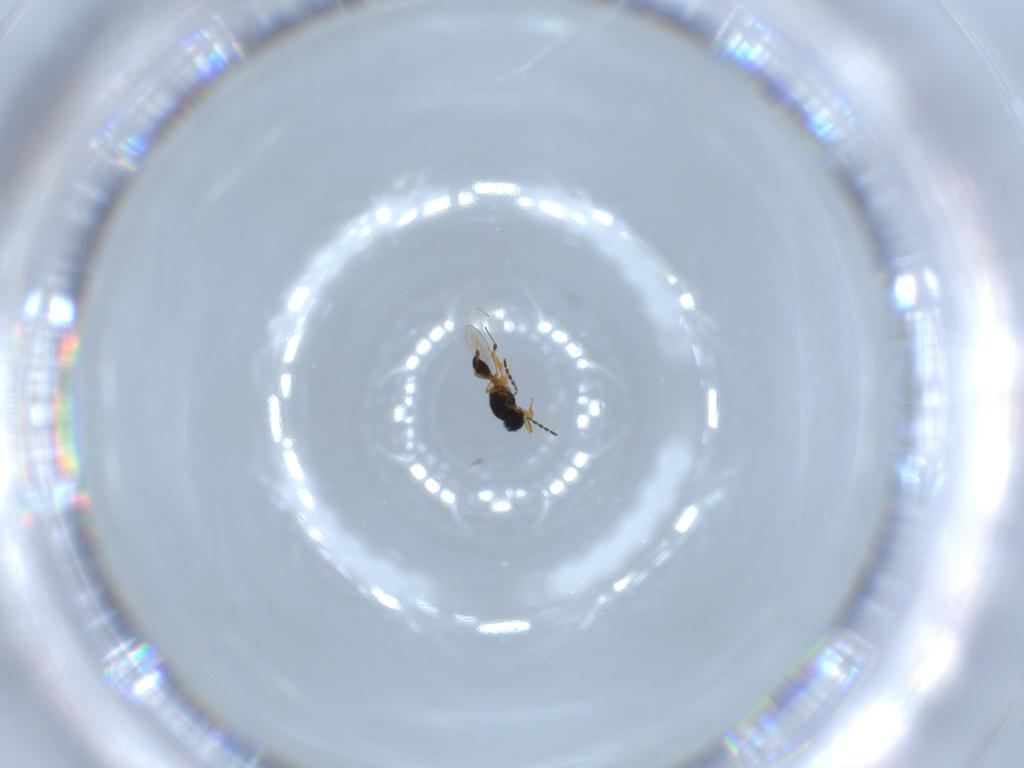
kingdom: Animalia
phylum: Arthropoda
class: Insecta
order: Hymenoptera
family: Platygastridae
